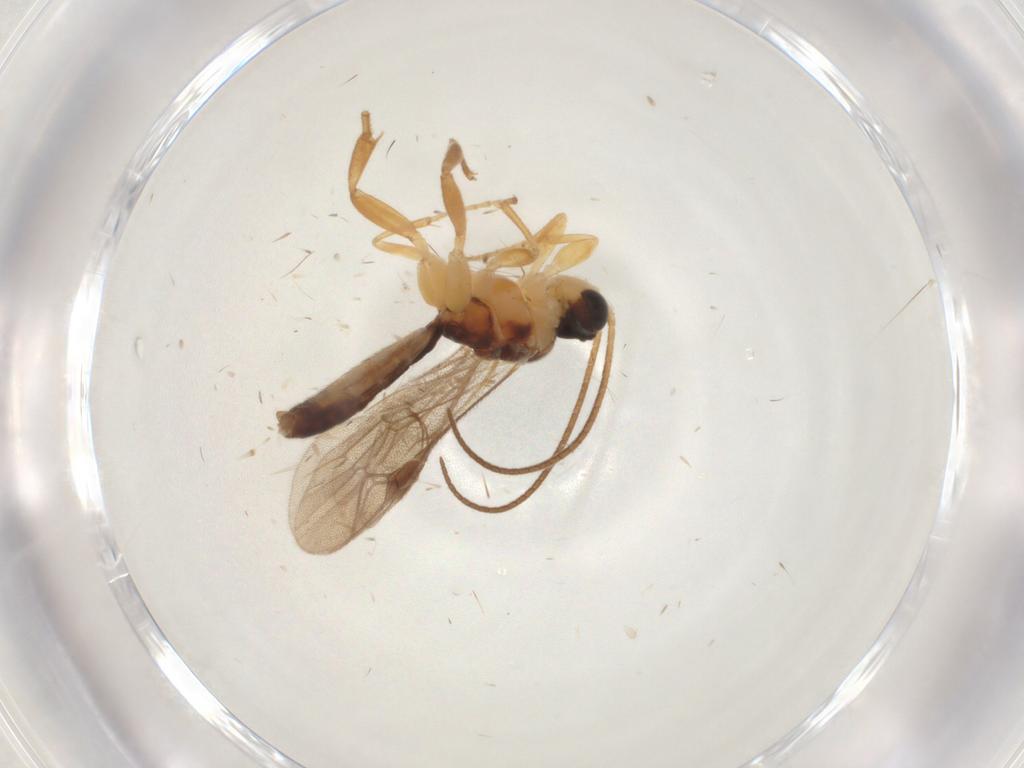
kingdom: Animalia
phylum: Arthropoda
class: Insecta
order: Hymenoptera
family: Ichneumonidae
